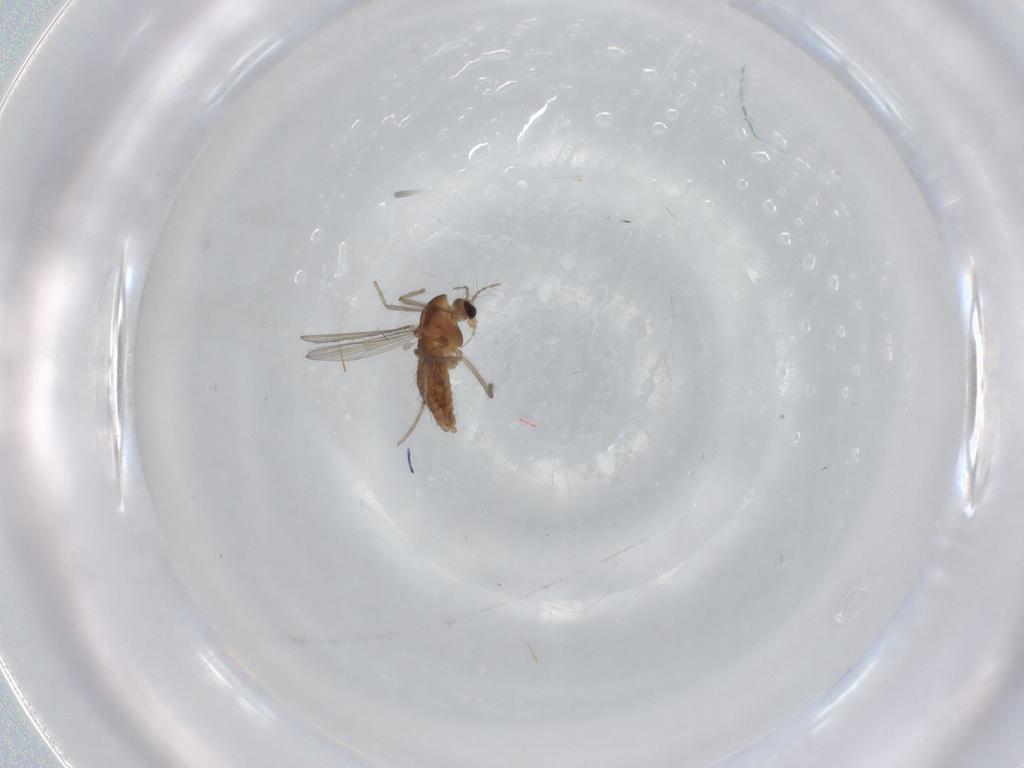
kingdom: Animalia
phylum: Arthropoda
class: Insecta
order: Diptera
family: Chironomidae
